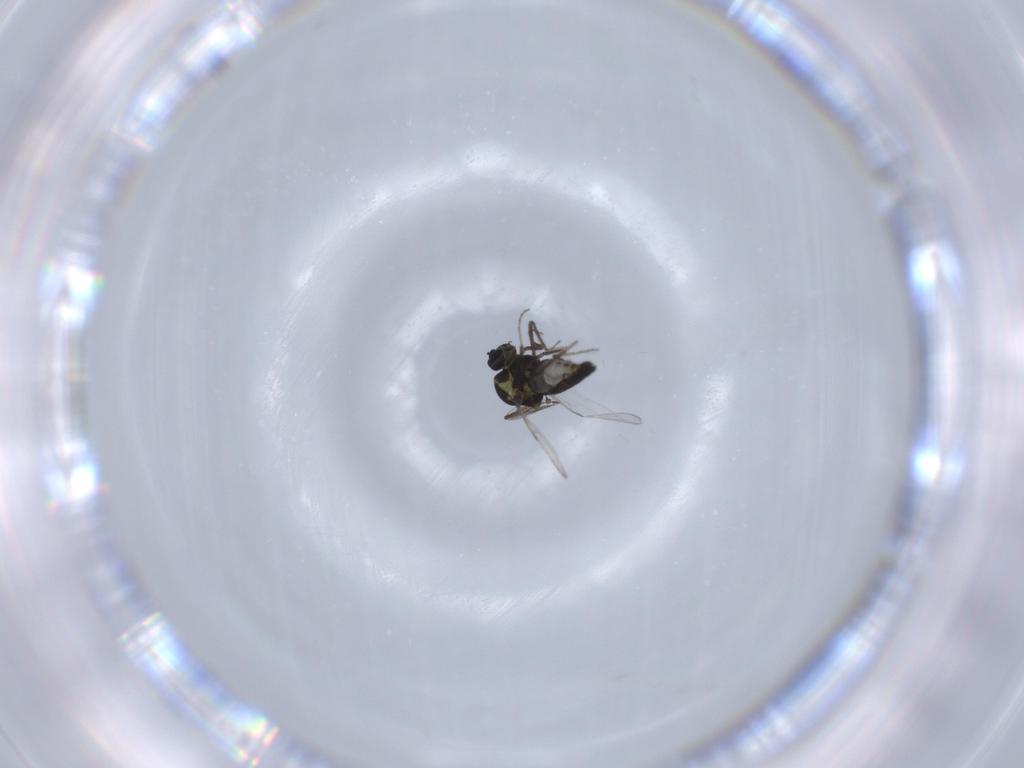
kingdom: Animalia
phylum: Arthropoda
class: Insecta
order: Diptera
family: Ceratopogonidae
